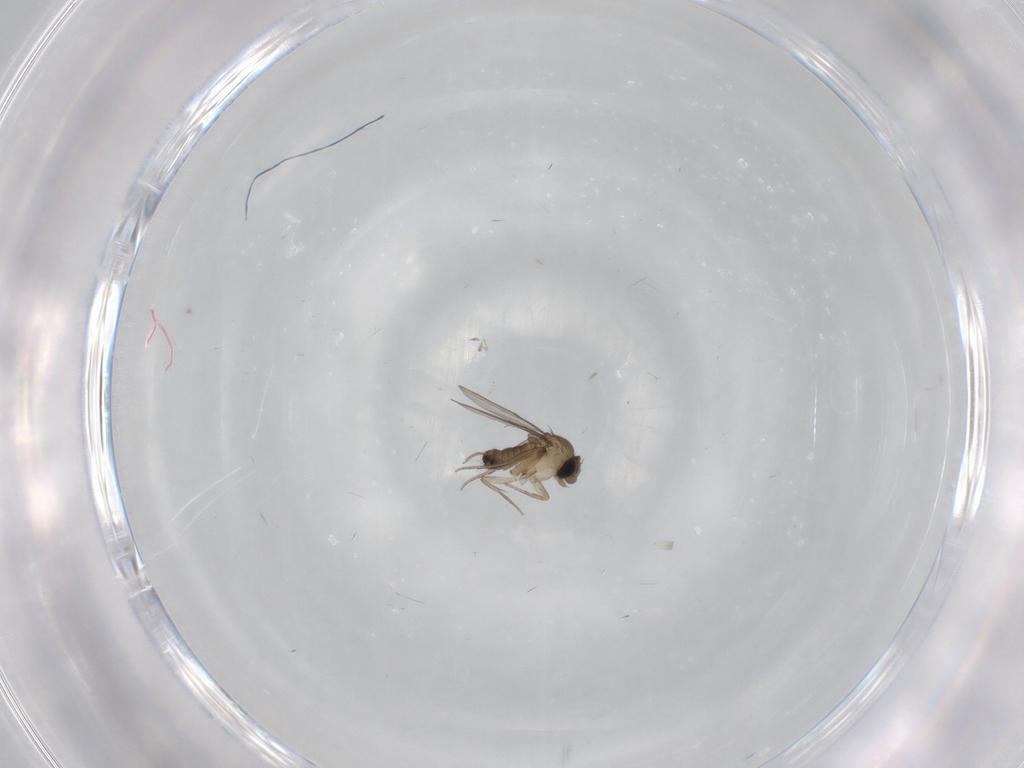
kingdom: Animalia
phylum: Arthropoda
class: Insecta
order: Diptera
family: Phoridae
